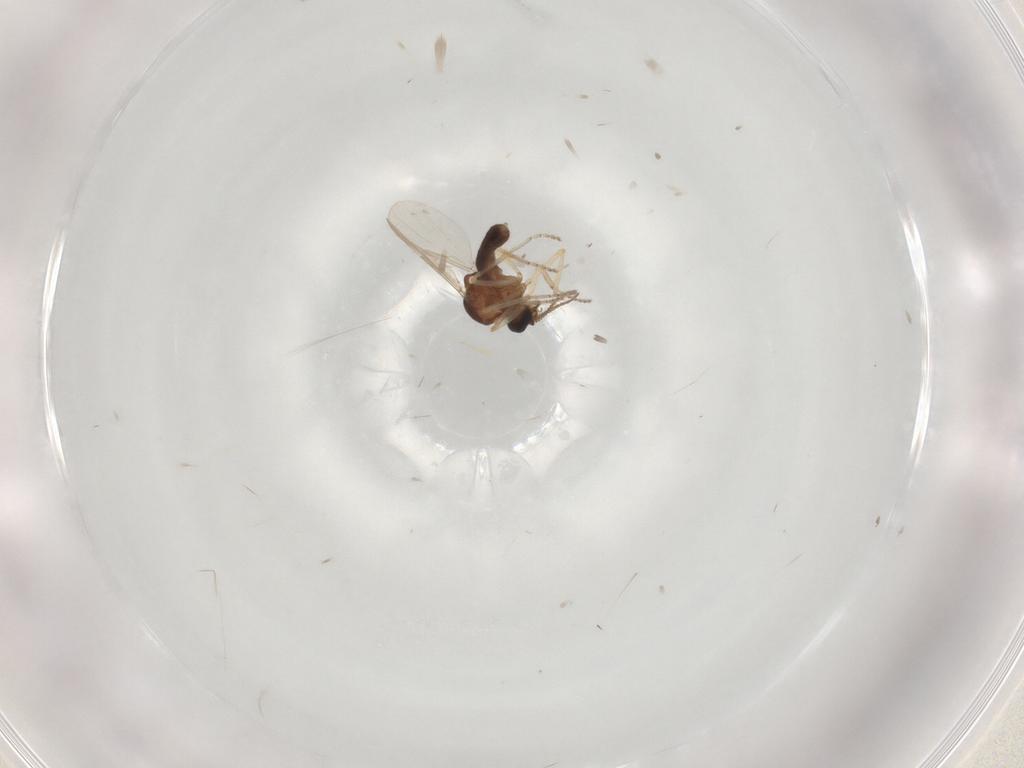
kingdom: Animalia
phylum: Arthropoda
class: Insecta
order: Diptera
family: Ceratopogonidae
